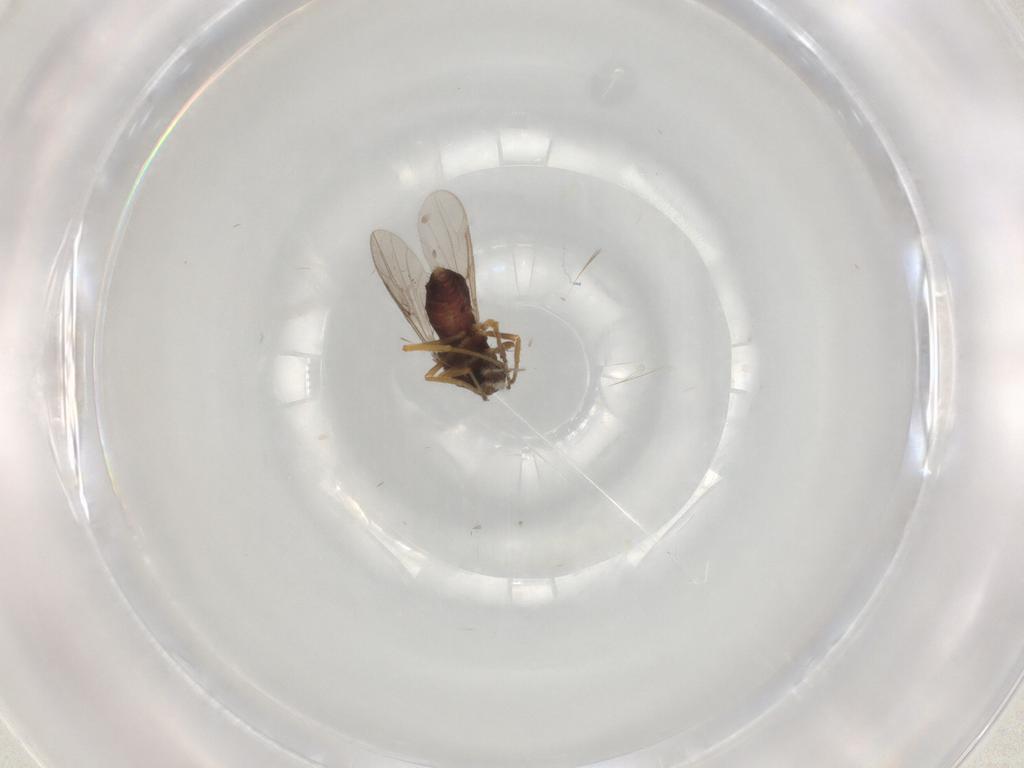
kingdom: Animalia
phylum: Arthropoda
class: Insecta
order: Diptera
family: Ceratopogonidae
